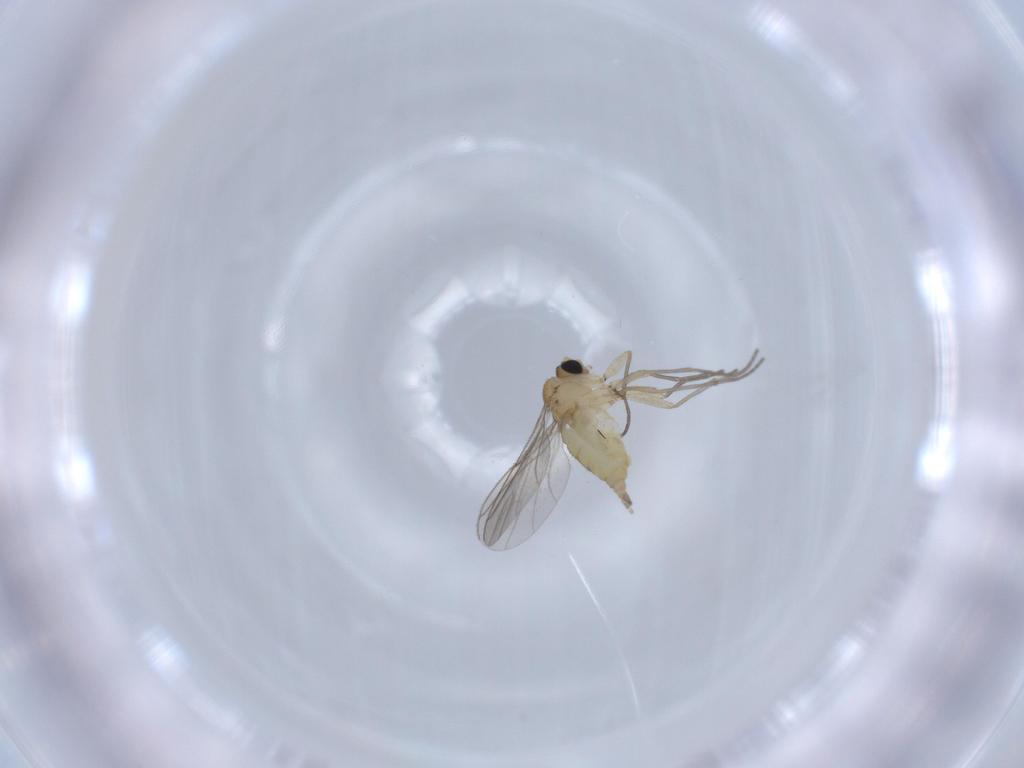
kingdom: Animalia
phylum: Arthropoda
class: Insecta
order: Diptera
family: Sciaridae
